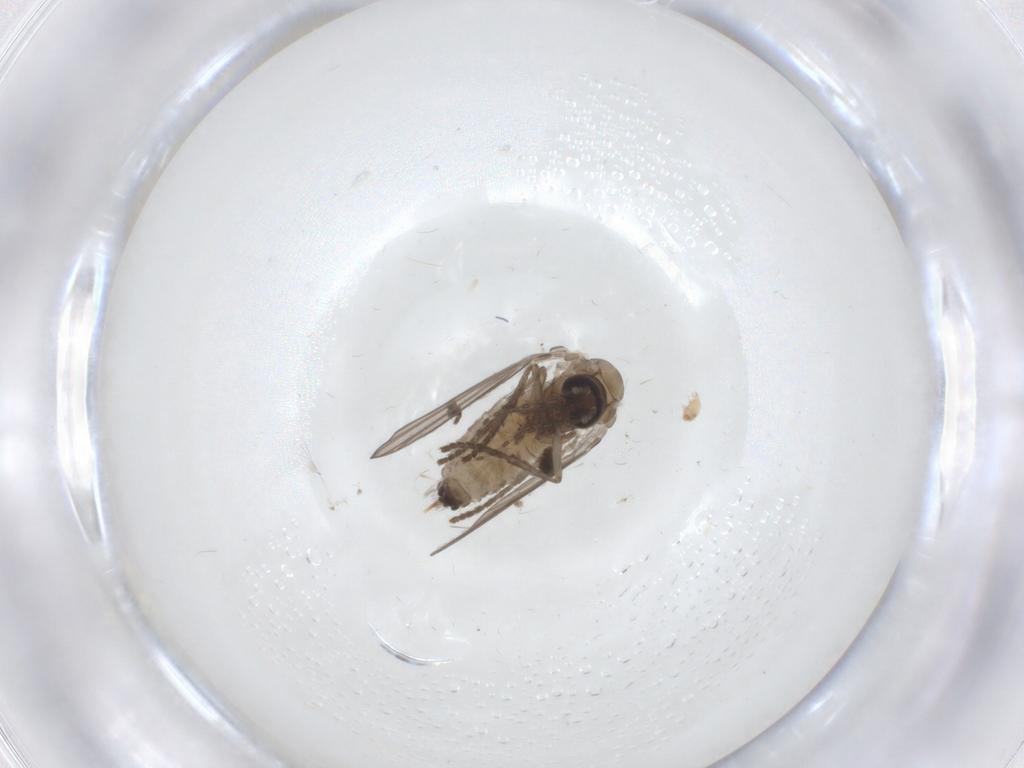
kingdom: Animalia
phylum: Arthropoda
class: Insecta
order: Diptera
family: Psychodidae
